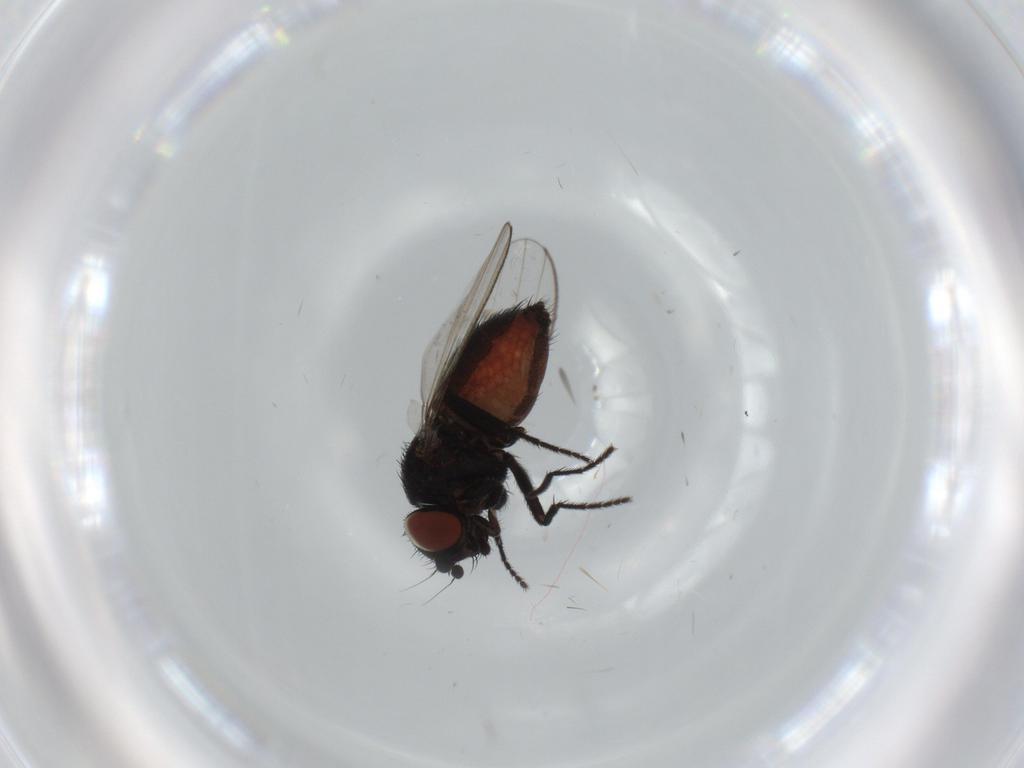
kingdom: Animalia
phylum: Arthropoda
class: Insecta
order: Diptera
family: Milichiidae
